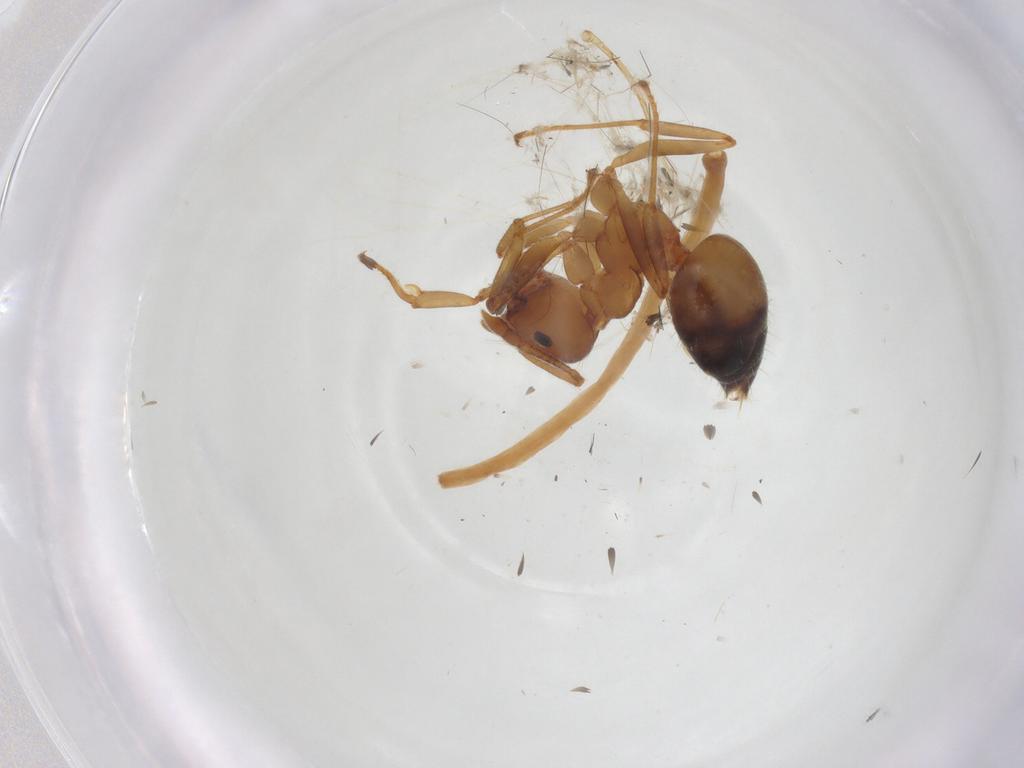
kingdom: Animalia
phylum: Arthropoda
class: Insecta
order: Hymenoptera
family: Formicidae
